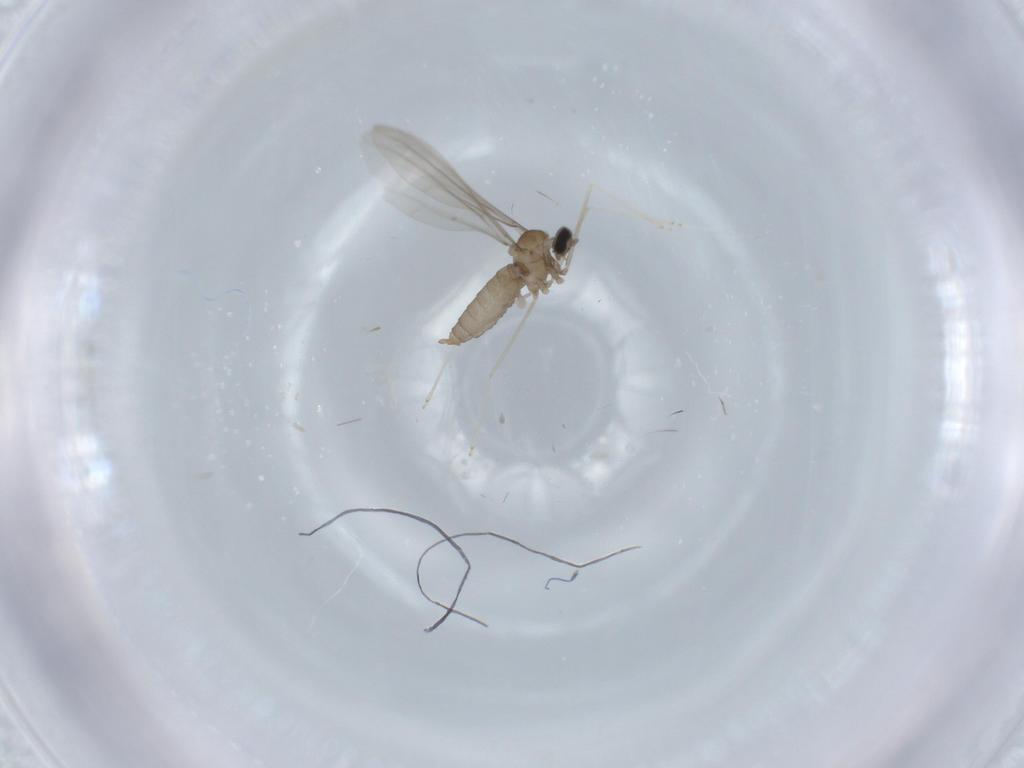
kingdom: Animalia
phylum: Arthropoda
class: Insecta
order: Diptera
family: Cecidomyiidae
